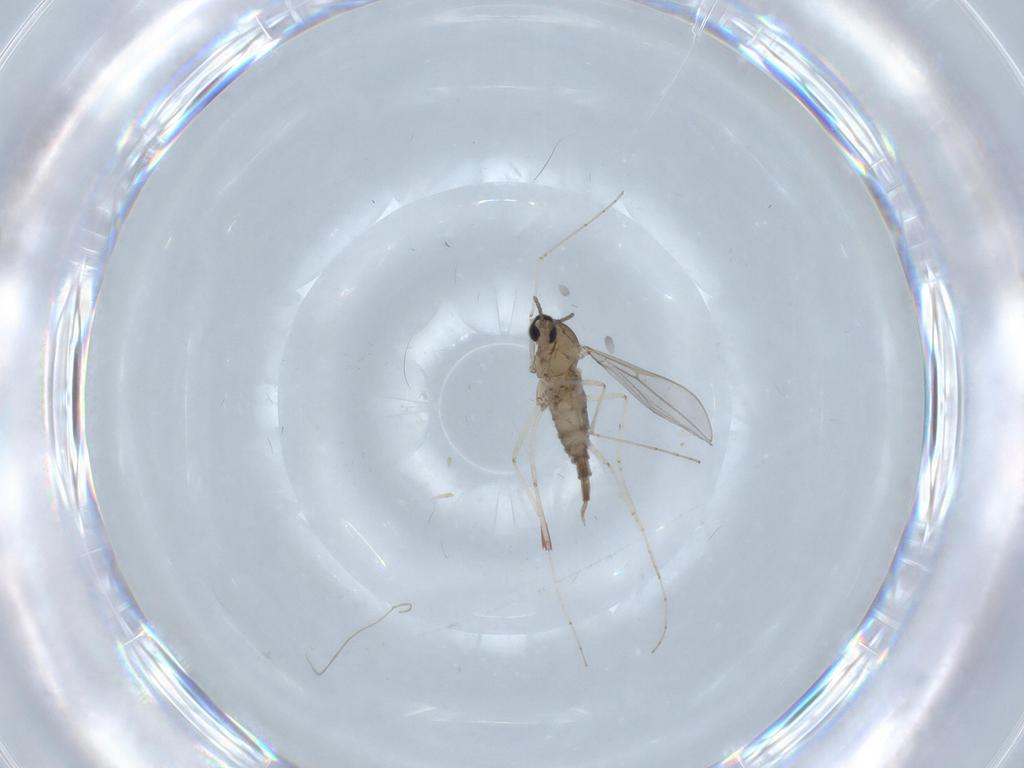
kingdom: Animalia
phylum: Arthropoda
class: Insecta
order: Diptera
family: Cecidomyiidae
